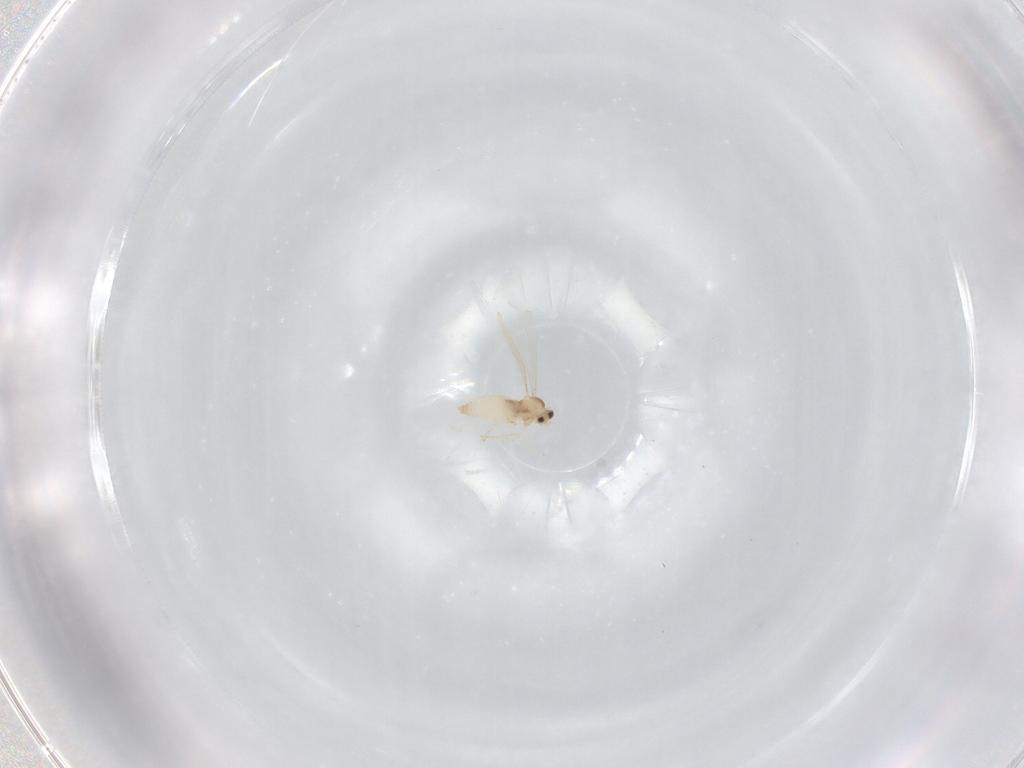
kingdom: Animalia
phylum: Arthropoda
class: Insecta
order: Diptera
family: Cecidomyiidae
